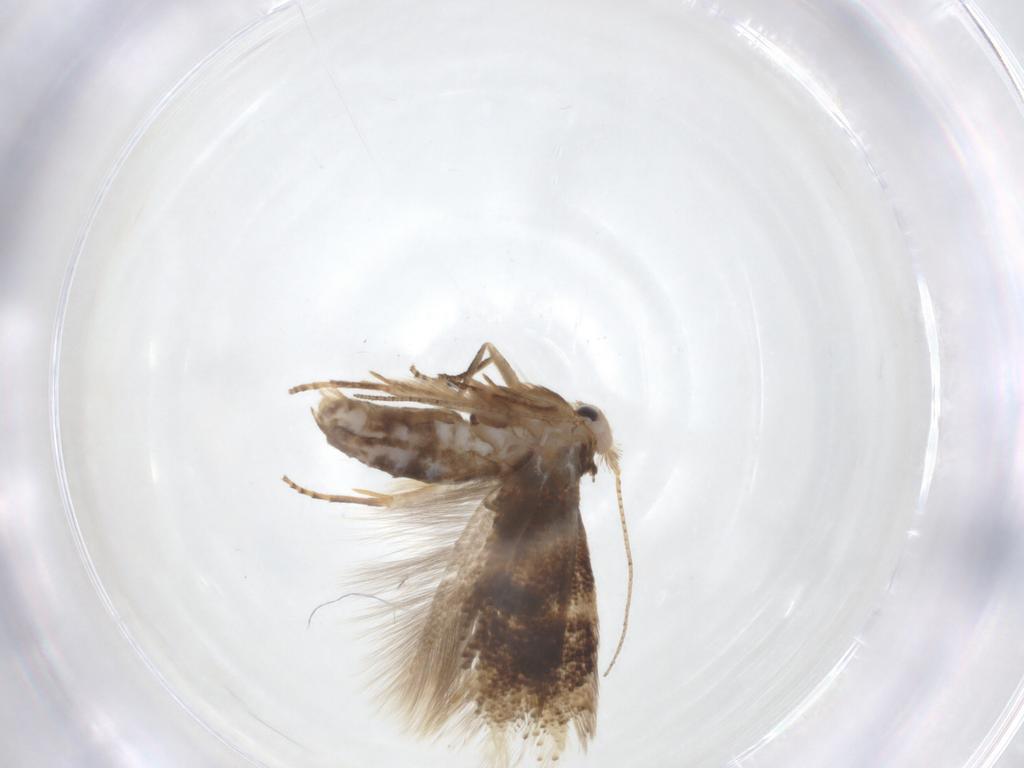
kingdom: Animalia
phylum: Arthropoda
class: Insecta
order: Lepidoptera
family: Bucculatricidae
